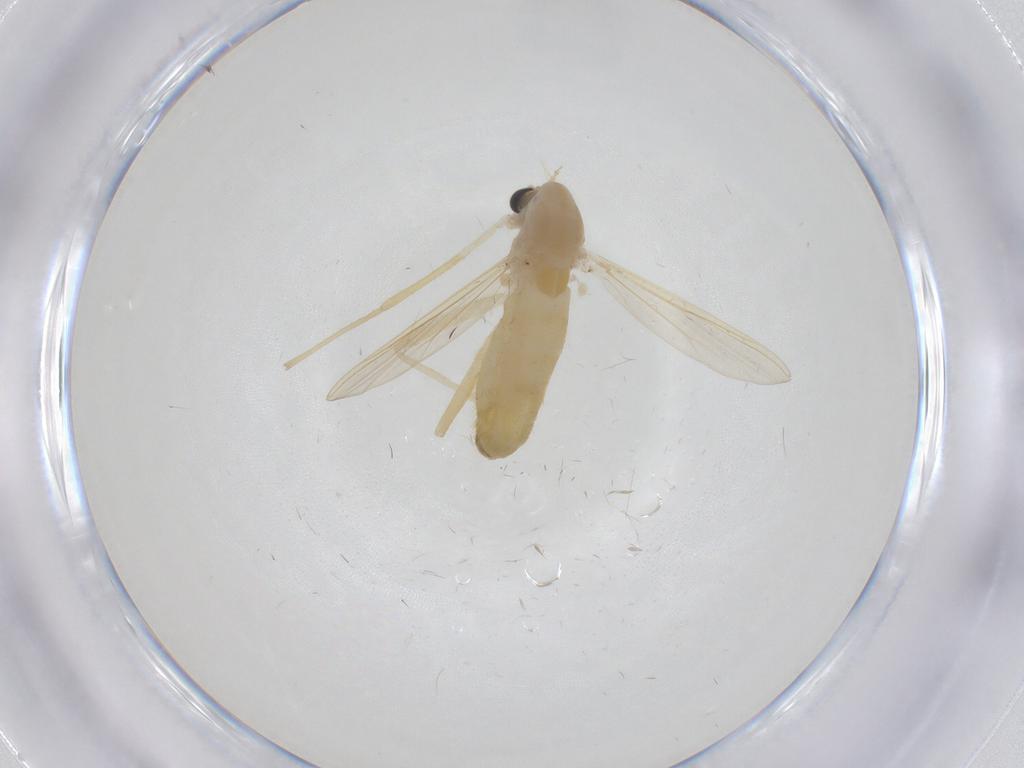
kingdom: Animalia
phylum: Arthropoda
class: Insecta
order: Diptera
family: Chironomidae
